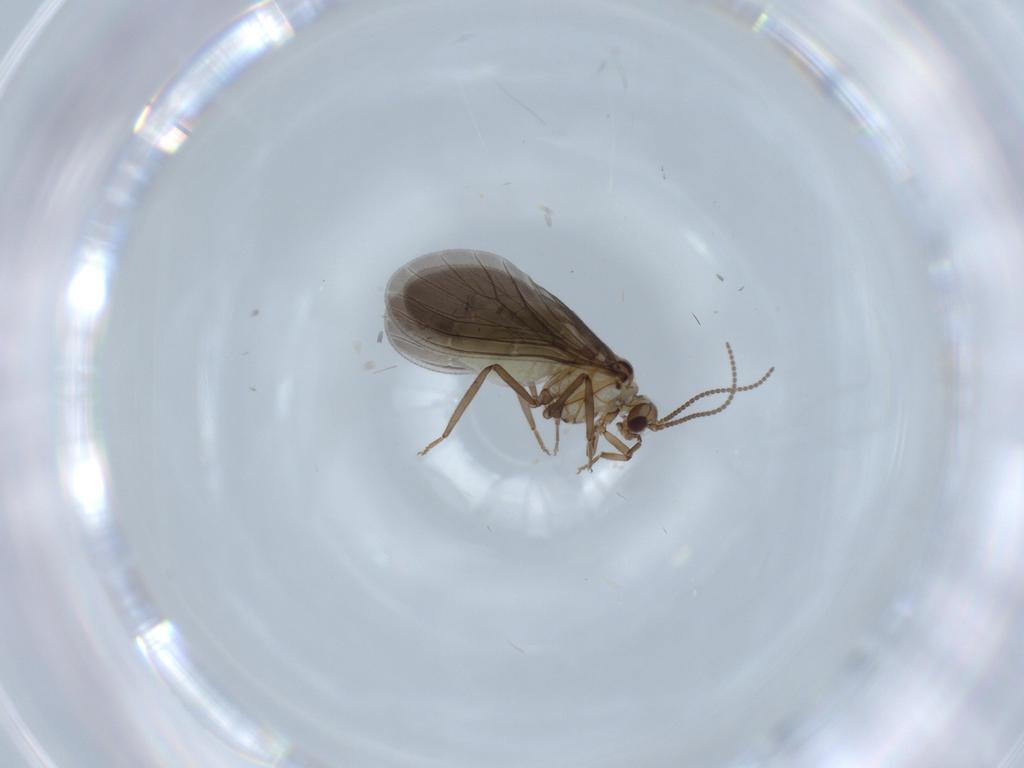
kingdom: Animalia
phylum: Arthropoda
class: Insecta
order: Neuroptera
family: Coniopterygidae
